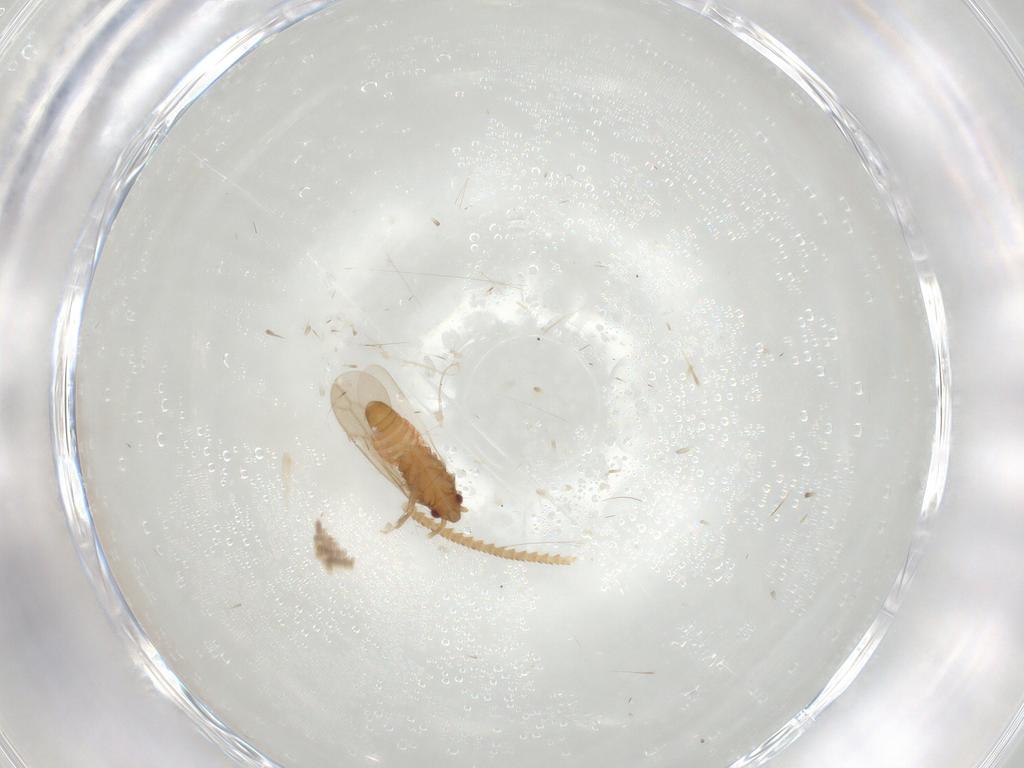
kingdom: Animalia
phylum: Arthropoda
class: Insecta
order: Hemiptera
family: Ceratocombidae
